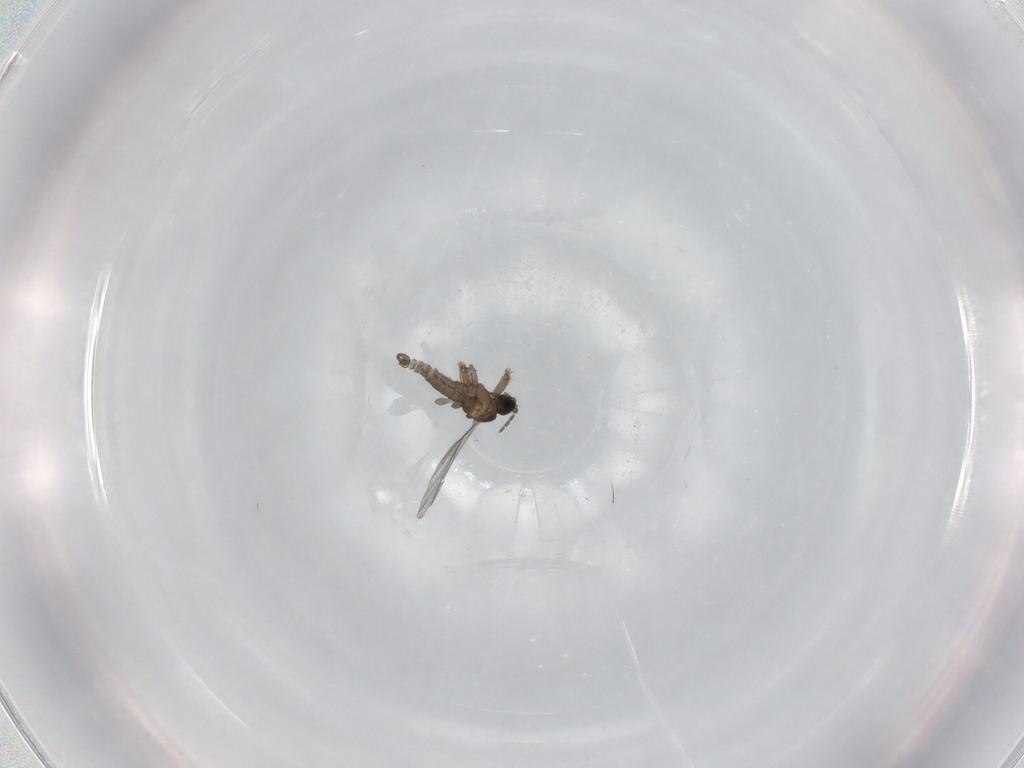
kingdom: Animalia
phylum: Arthropoda
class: Insecta
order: Diptera
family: Sciaridae
